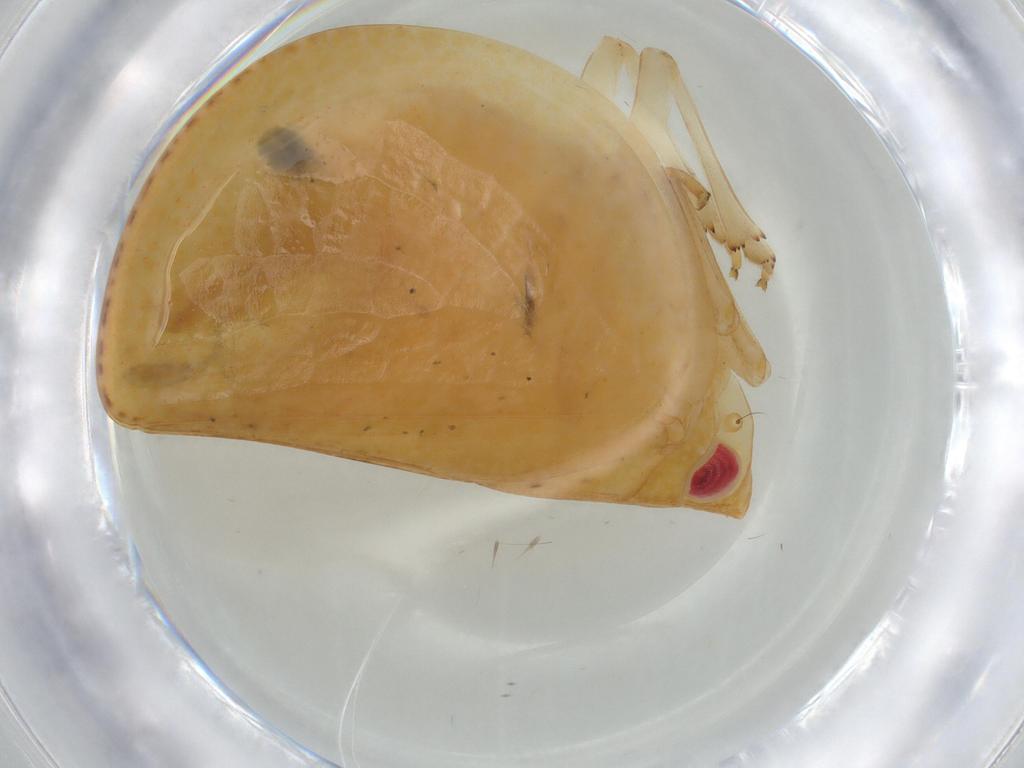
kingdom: Animalia
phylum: Arthropoda
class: Insecta
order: Hemiptera
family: Acanaloniidae
